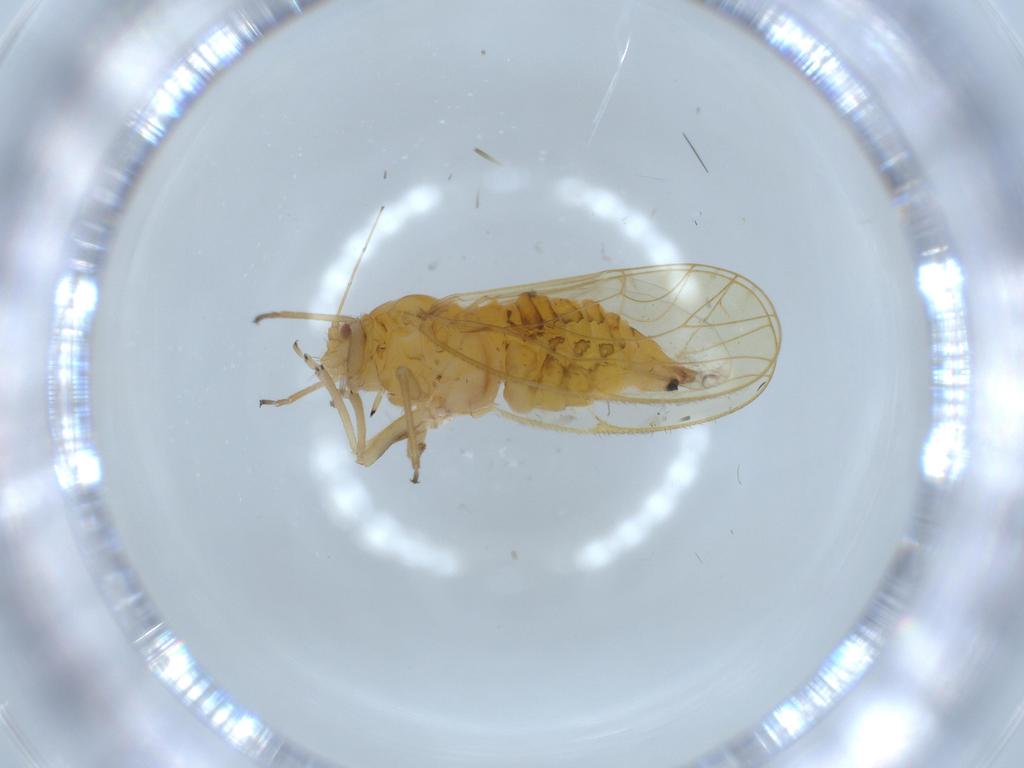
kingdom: Animalia
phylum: Arthropoda
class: Insecta
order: Hemiptera
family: Psyllidae
